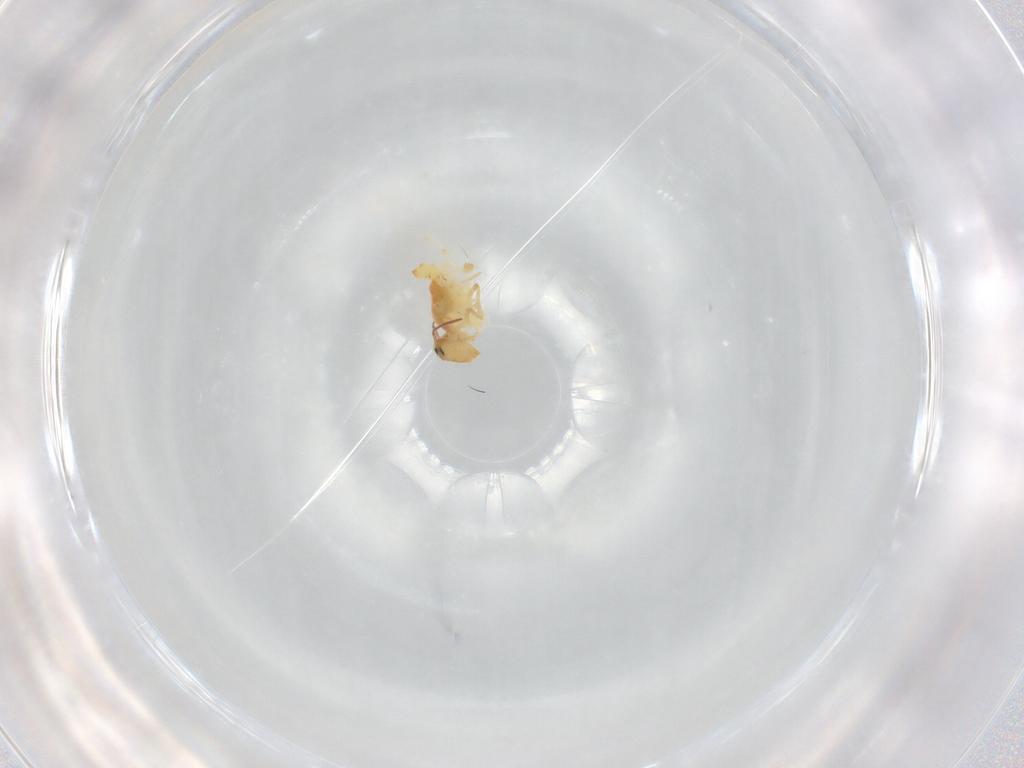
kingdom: Animalia
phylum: Arthropoda
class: Collembola
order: Symphypleona
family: Bourletiellidae
